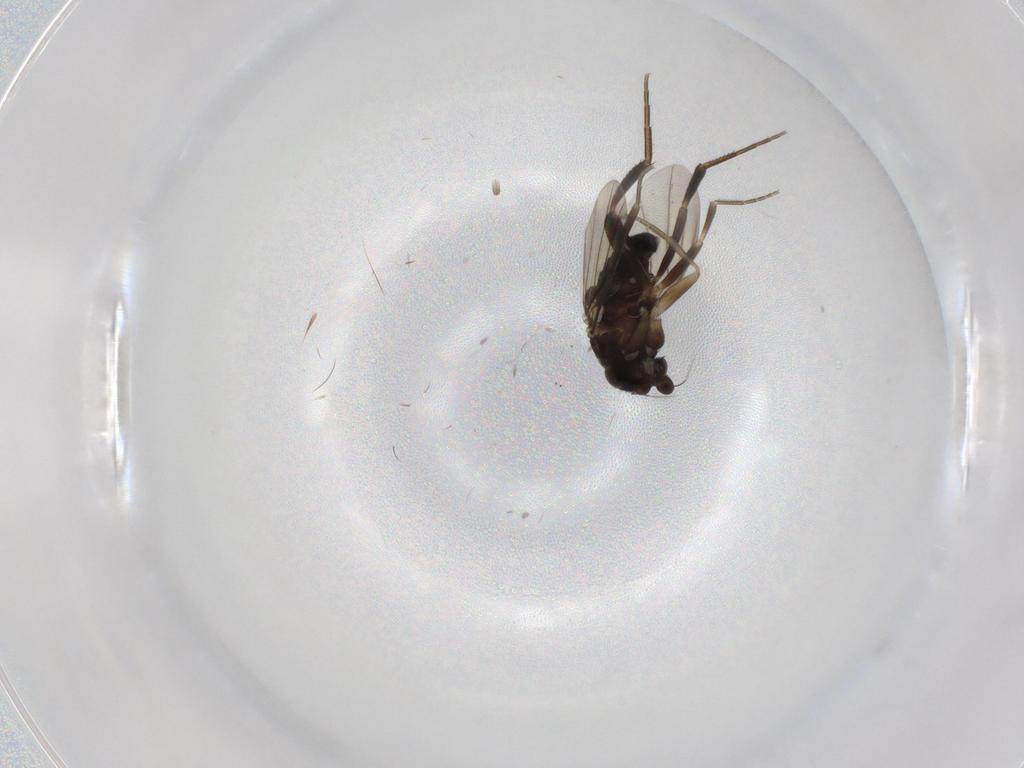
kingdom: Animalia
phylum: Arthropoda
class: Insecta
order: Diptera
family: Phoridae
